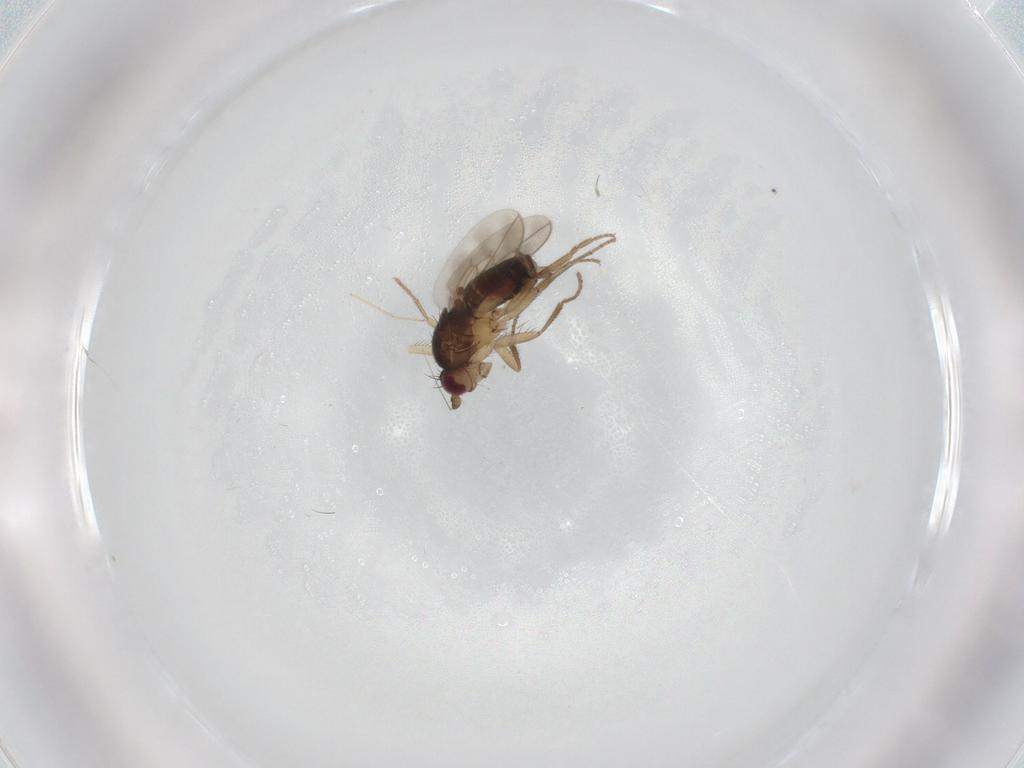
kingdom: Animalia
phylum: Arthropoda
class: Insecta
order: Diptera
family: Sphaeroceridae
